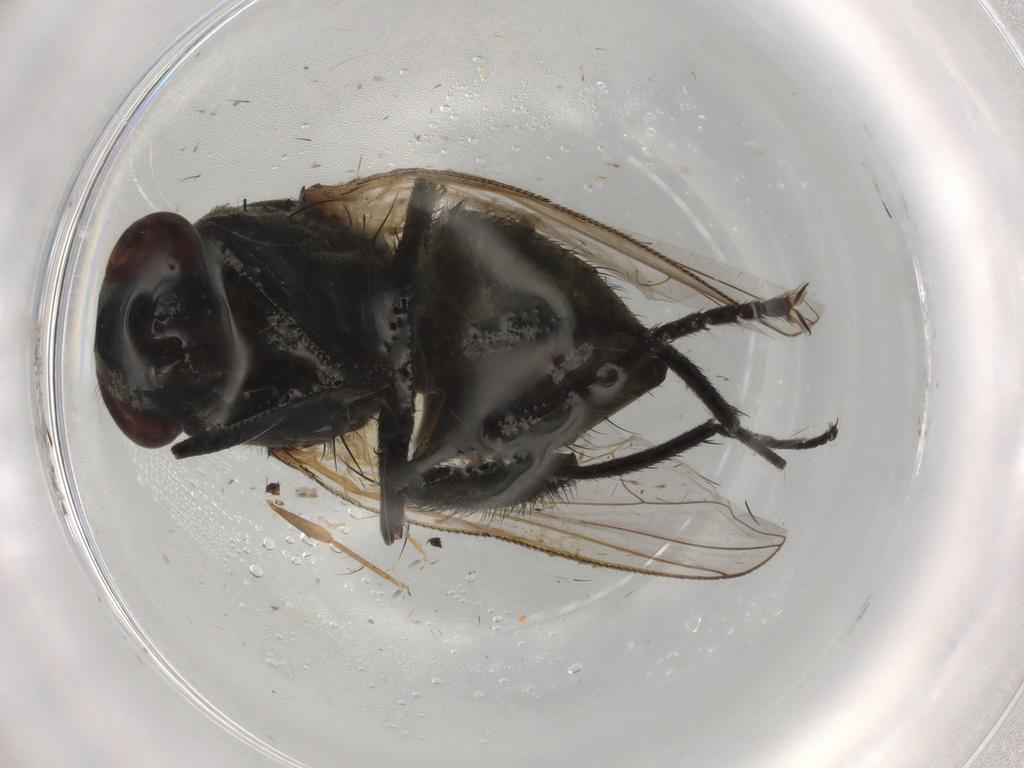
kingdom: Animalia
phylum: Arthropoda
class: Insecta
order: Diptera
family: Muscidae
